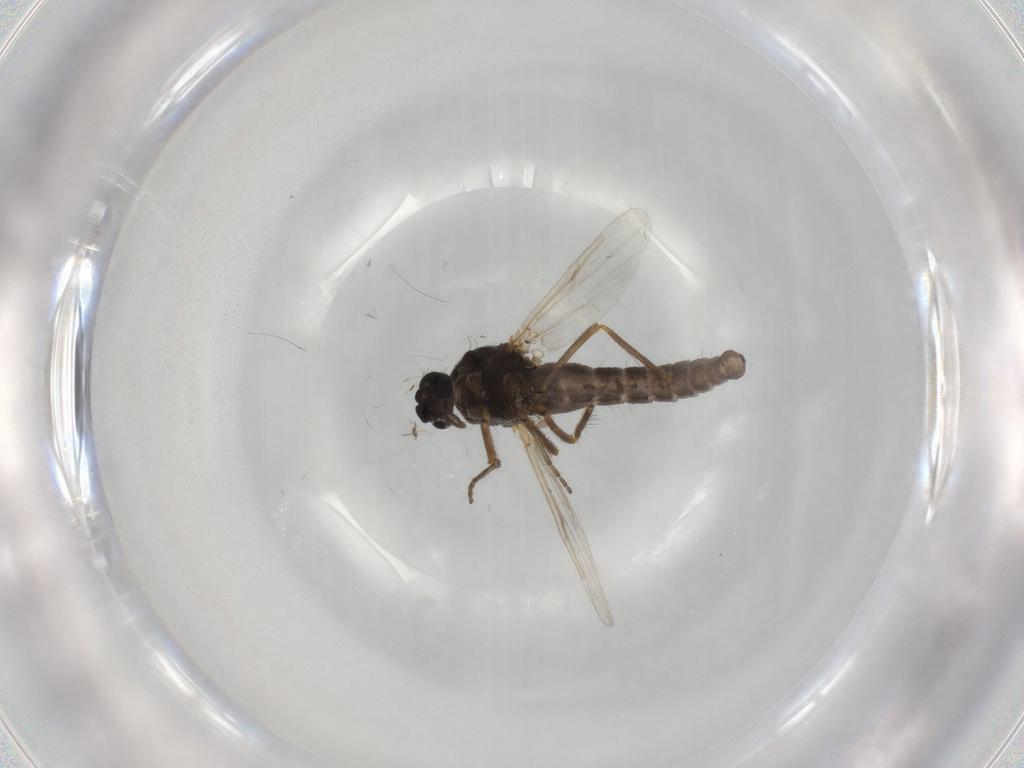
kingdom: Animalia
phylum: Arthropoda
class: Insecta
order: Diptera
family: Ceratopogonidae
